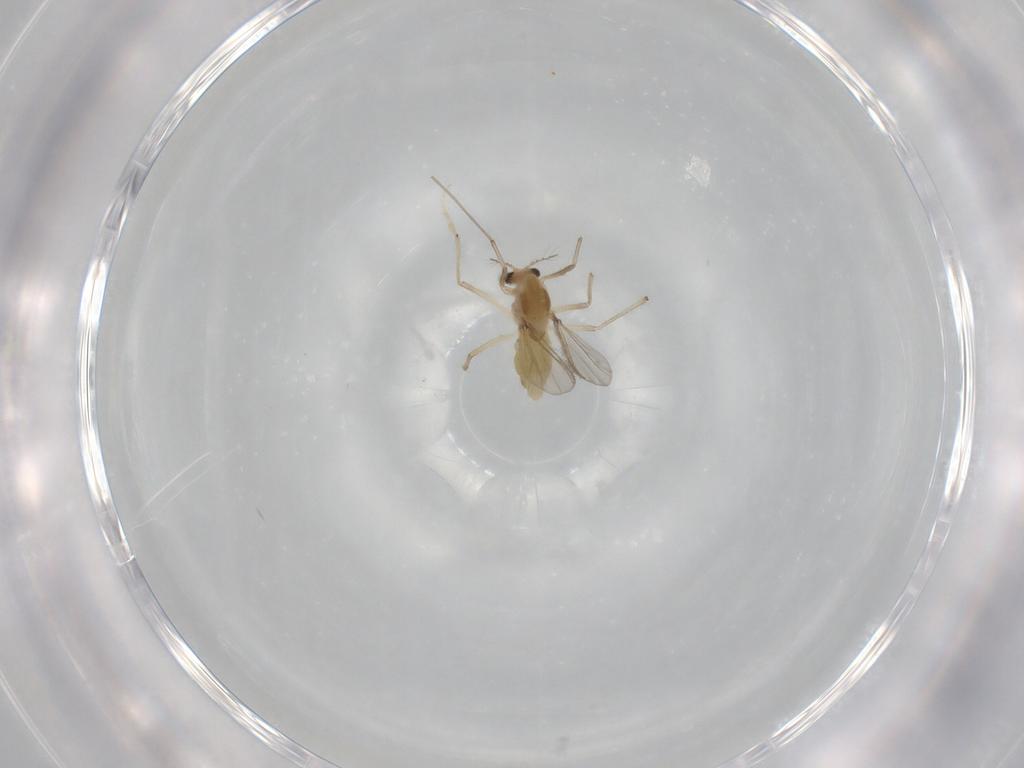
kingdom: Animalia
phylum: Arthropoda
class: Insecta
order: Diptera
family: Chironomidae
